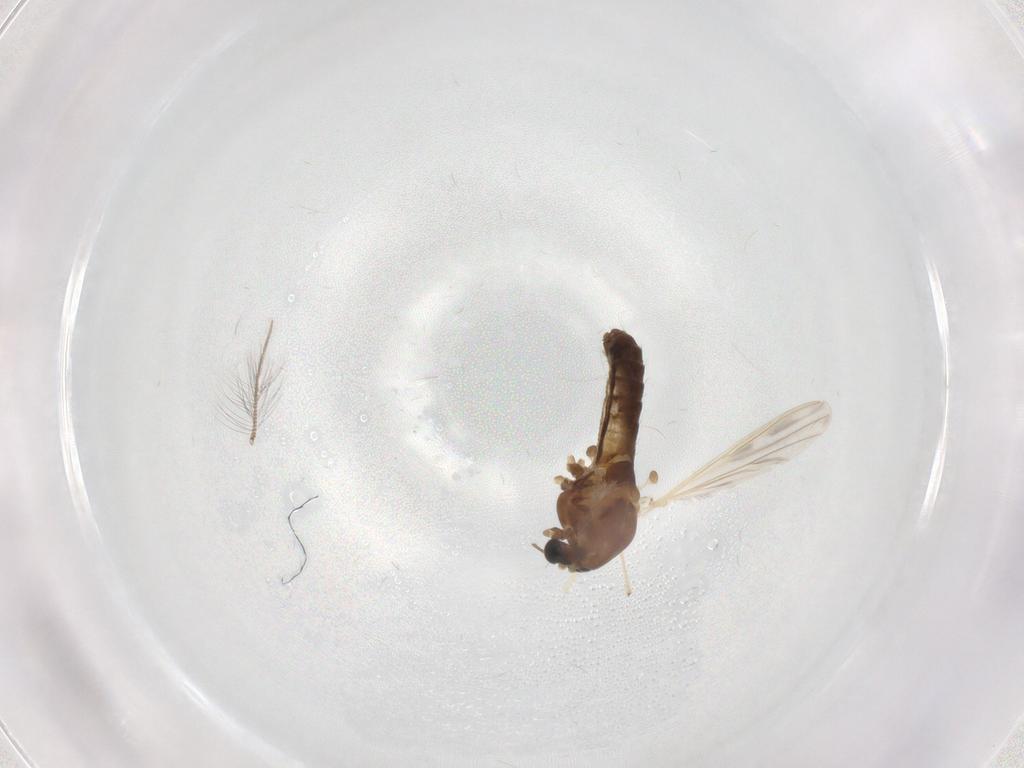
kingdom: Animalia
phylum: Arthropoda
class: Insecta
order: Diptera
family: Chironomidae
